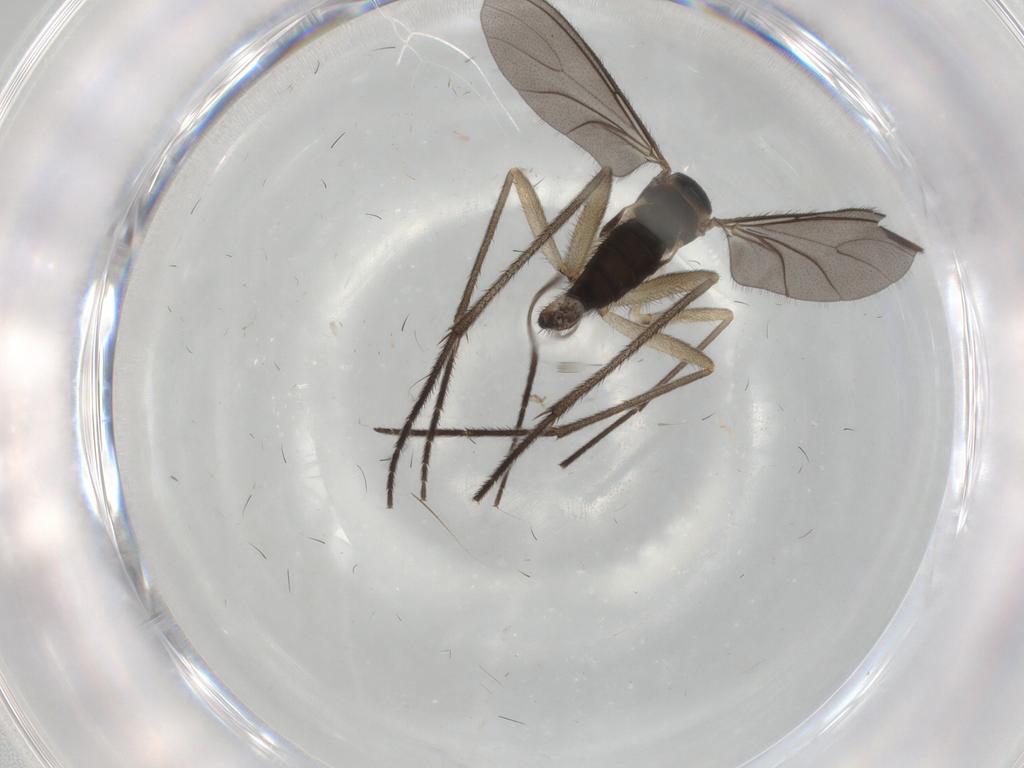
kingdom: Animalia
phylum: Arthropoda
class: Insecta
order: Diptera
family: Sciaridae
